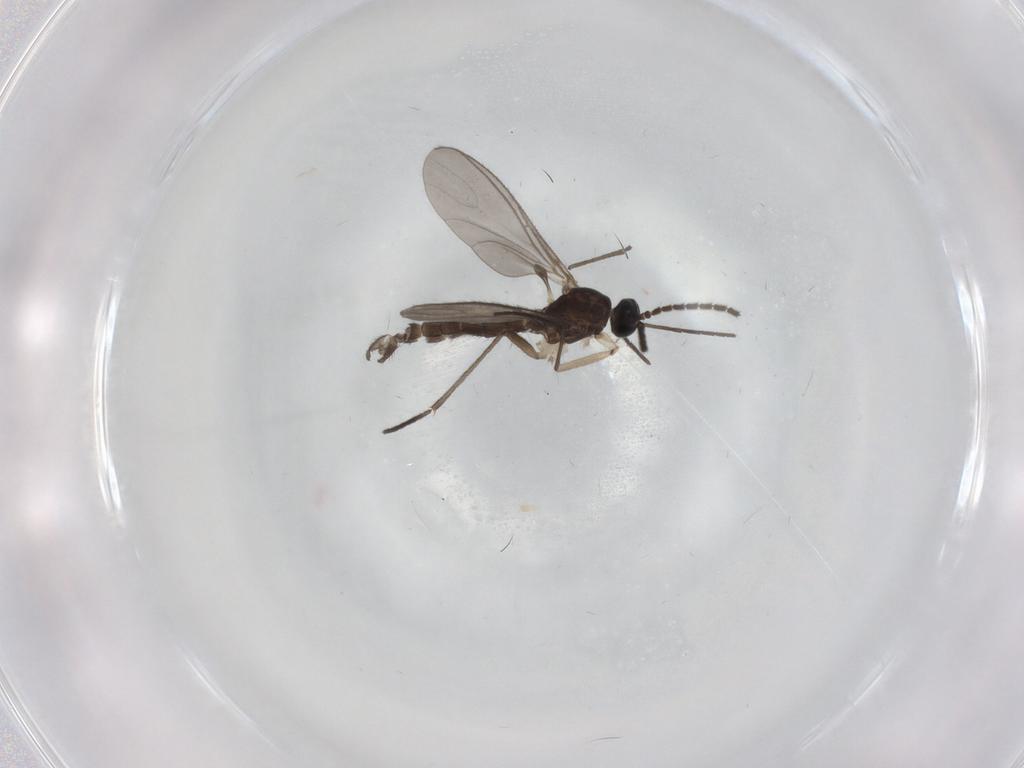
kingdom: Animalia
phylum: Arthropoda
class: Insecta
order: Diptera
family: Sciaridae
